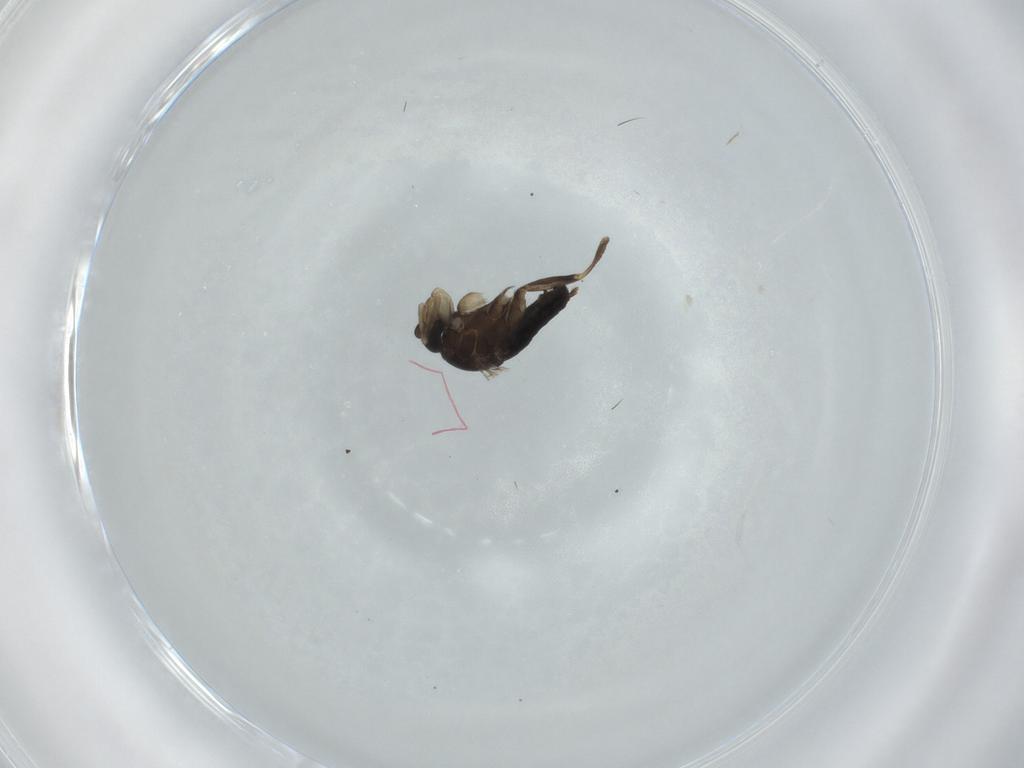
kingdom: Animalia
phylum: Arthropoda
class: Insecta
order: Diptera
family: Phoridae
